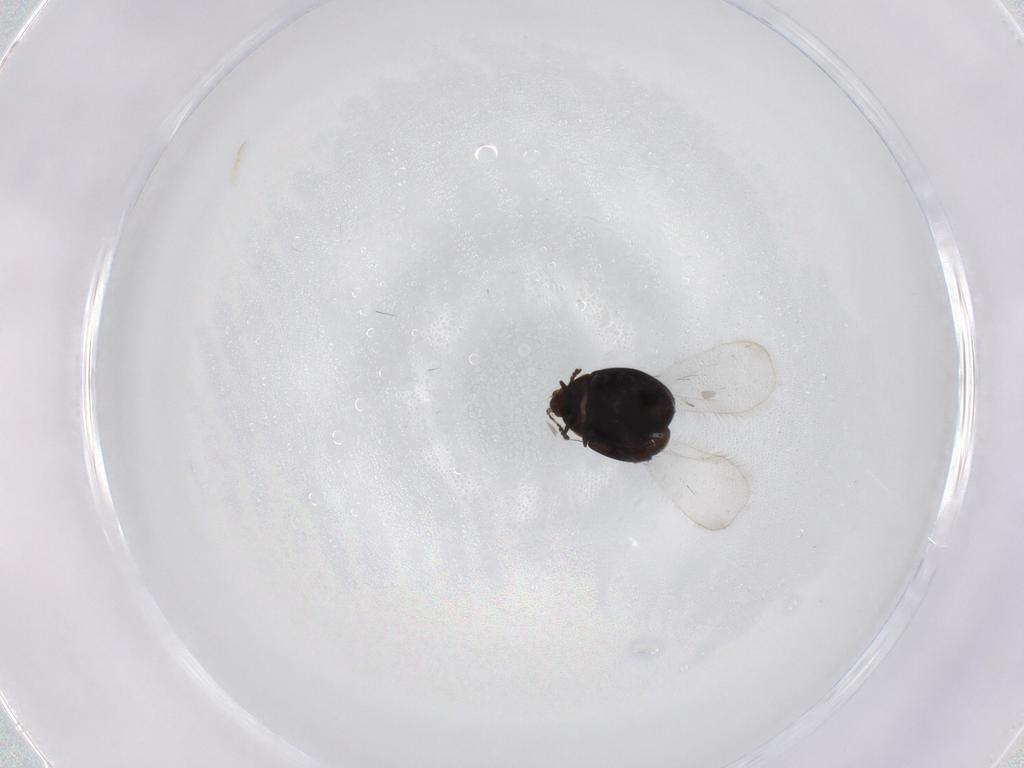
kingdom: Animalia
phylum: Arthropoda
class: Insecta
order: Coleoptera
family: Corylophidae
